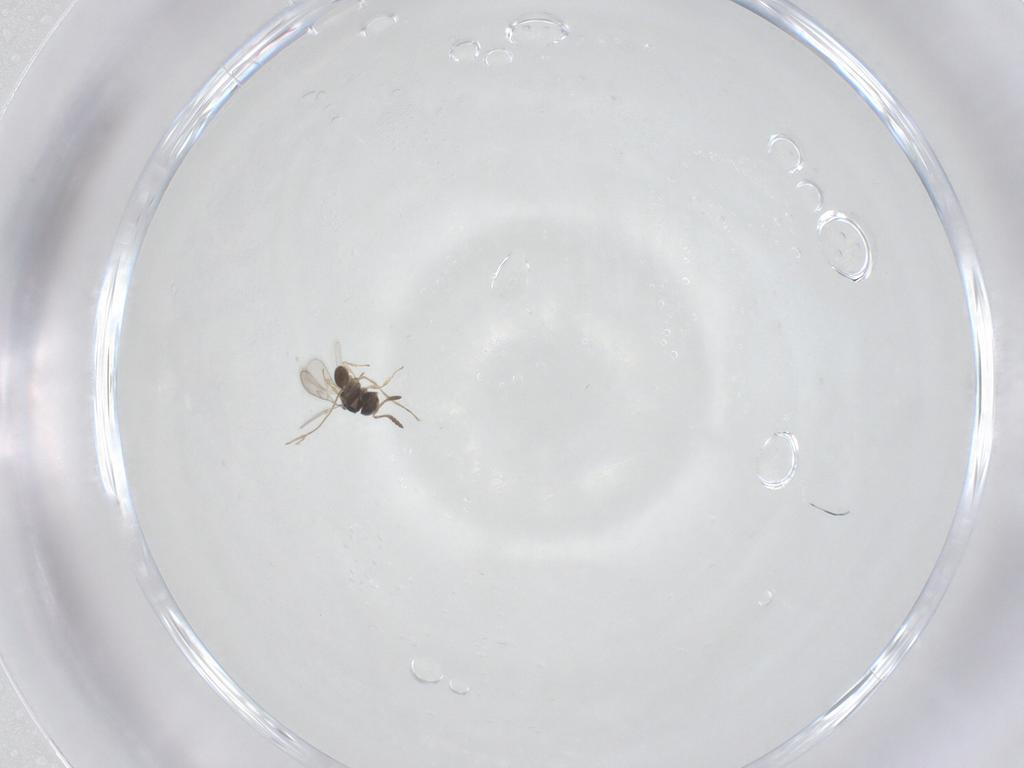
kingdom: Animalia
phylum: Arthropoda
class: Insecta
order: Hymenoptera
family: Scelionidae
